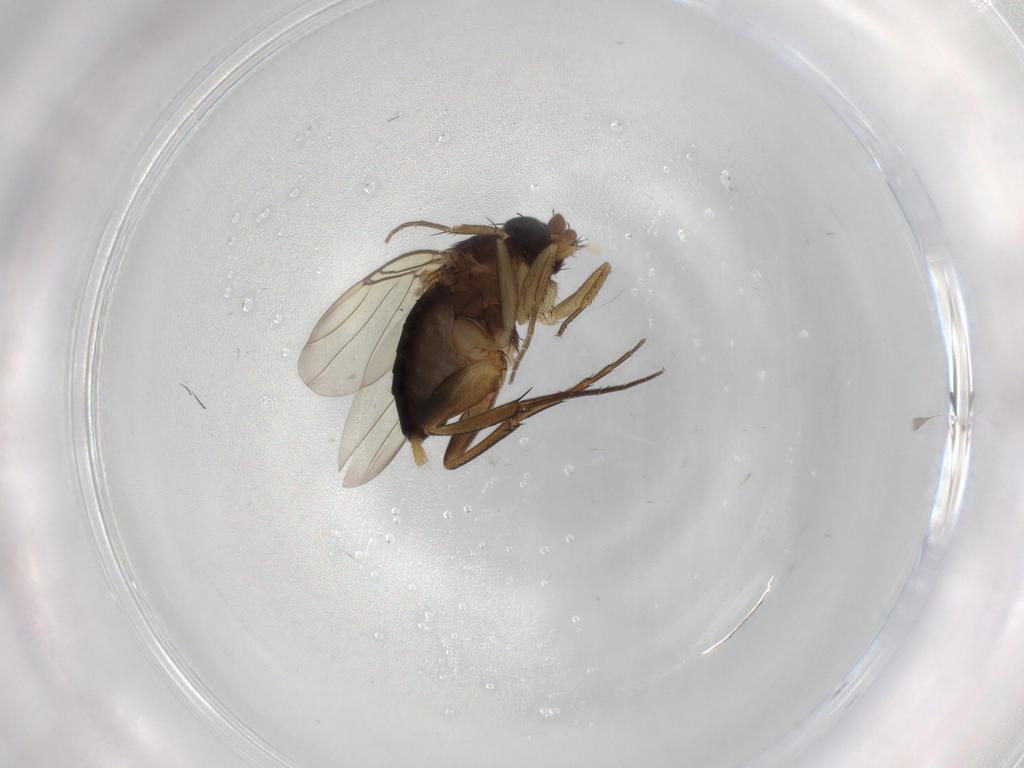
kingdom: Animalia
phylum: Arthropoda
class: Insecta
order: Diptera
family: Phoridae
